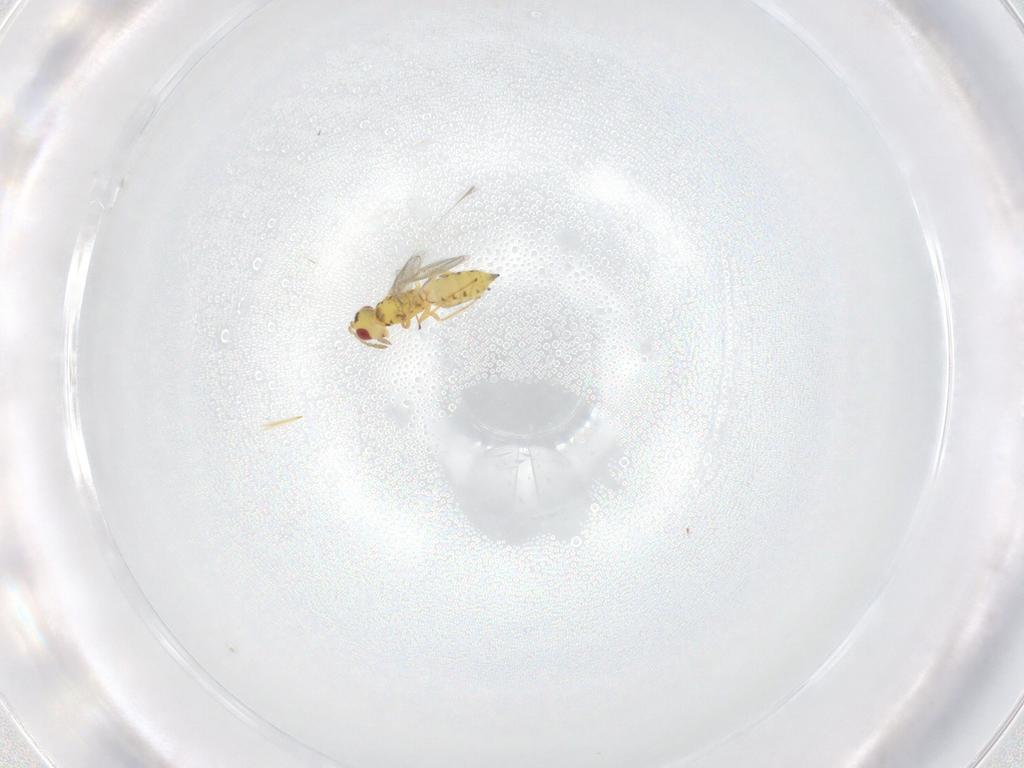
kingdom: Animalia
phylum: Arthropoda
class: Insecta
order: Hymenoptera
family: Eulophidae
